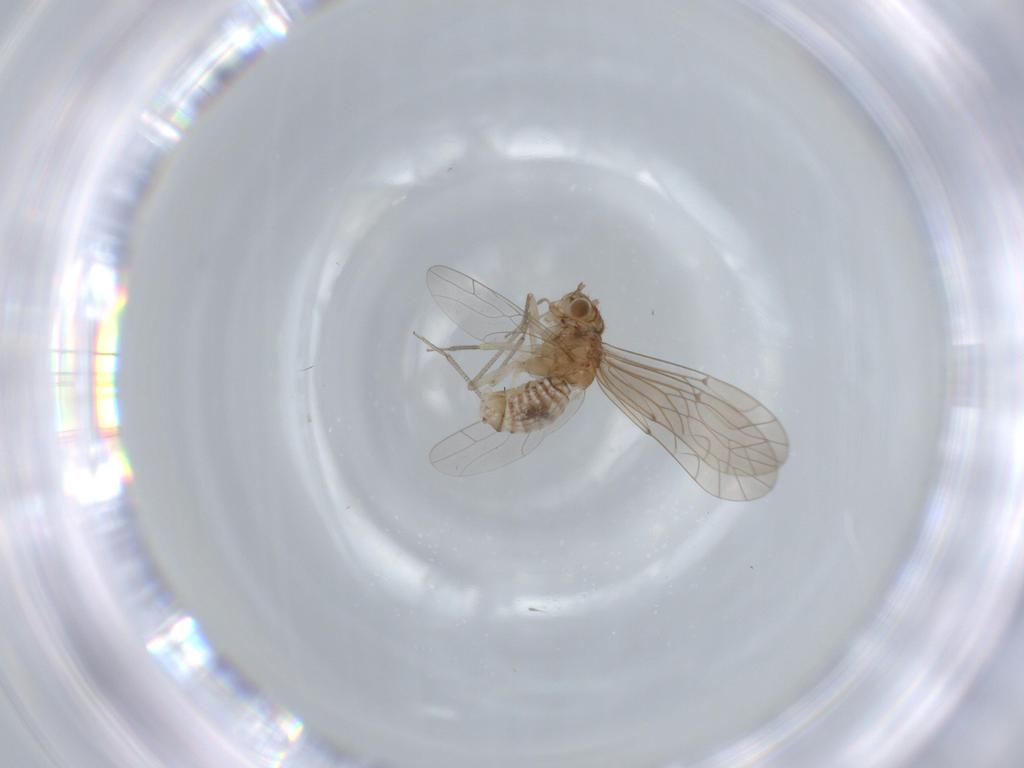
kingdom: Animalia
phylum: Arthropoda
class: Insecta
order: Psocodea
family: Lachesillidae
